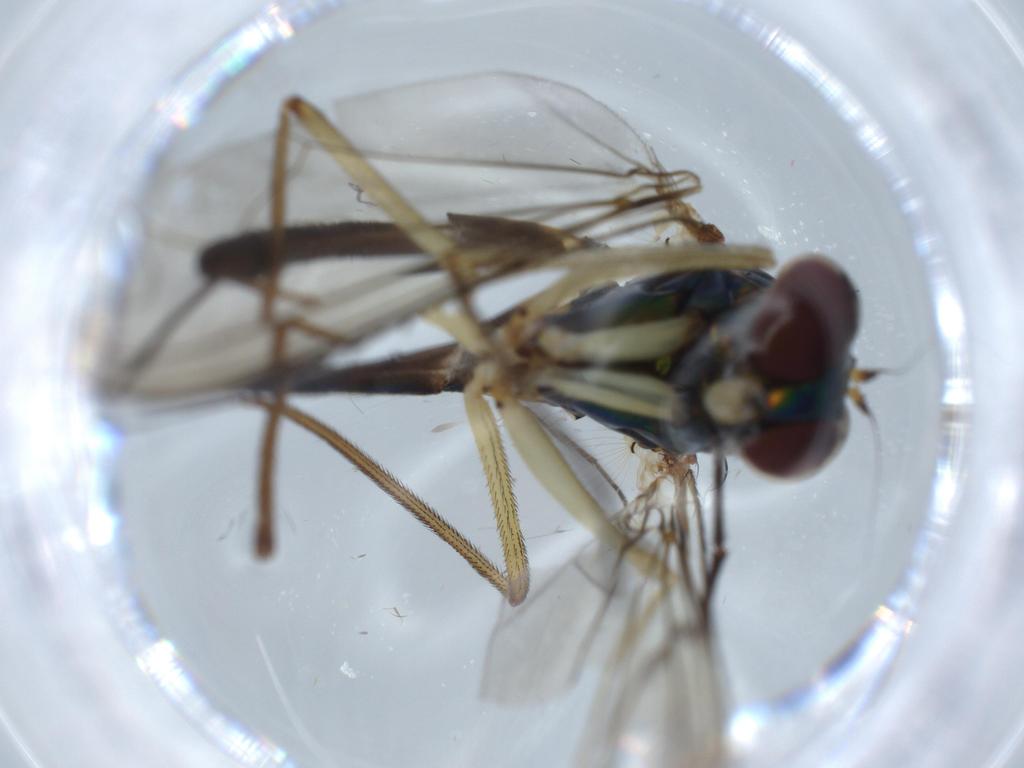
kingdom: Animalia
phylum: Arthropoda
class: Insecta
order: Diptera
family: Dolichopodidae
